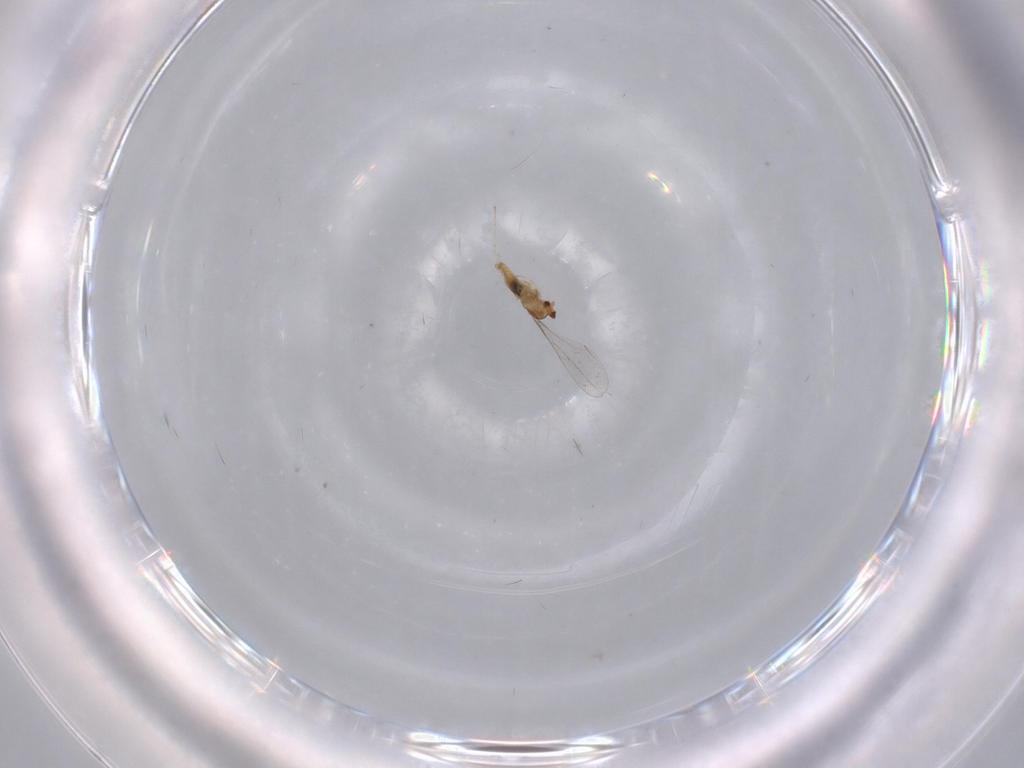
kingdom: Animalia
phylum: Arthropoda
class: Insecta
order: Diptera
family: Cecidomyiidae
